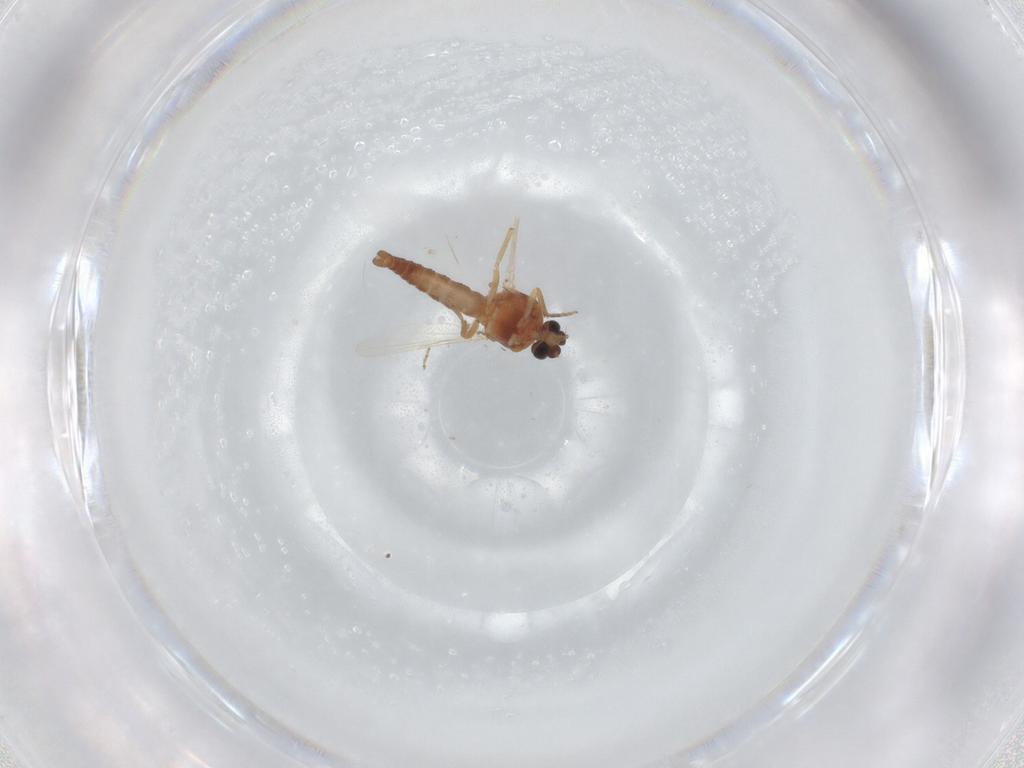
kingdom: Animalia
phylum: Arthropoda
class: Insecta
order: Diptera
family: Ceratopogonidae
